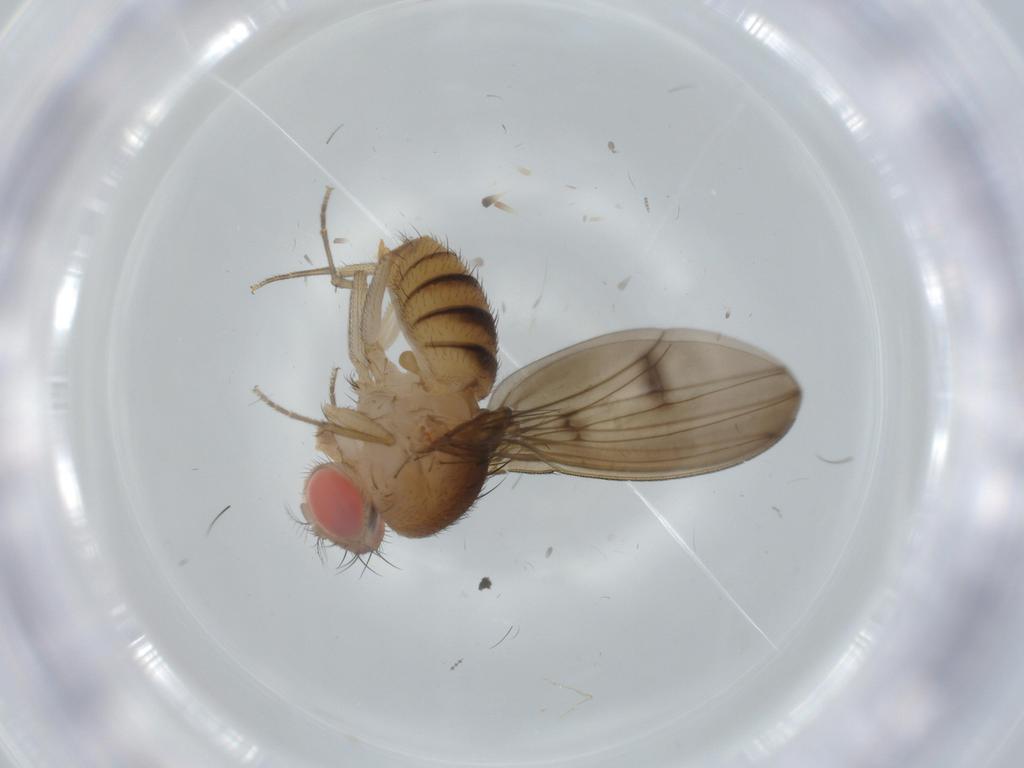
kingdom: Animalia
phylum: Arthropoda
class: Insecta
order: Diptera
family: Drosophilidae
